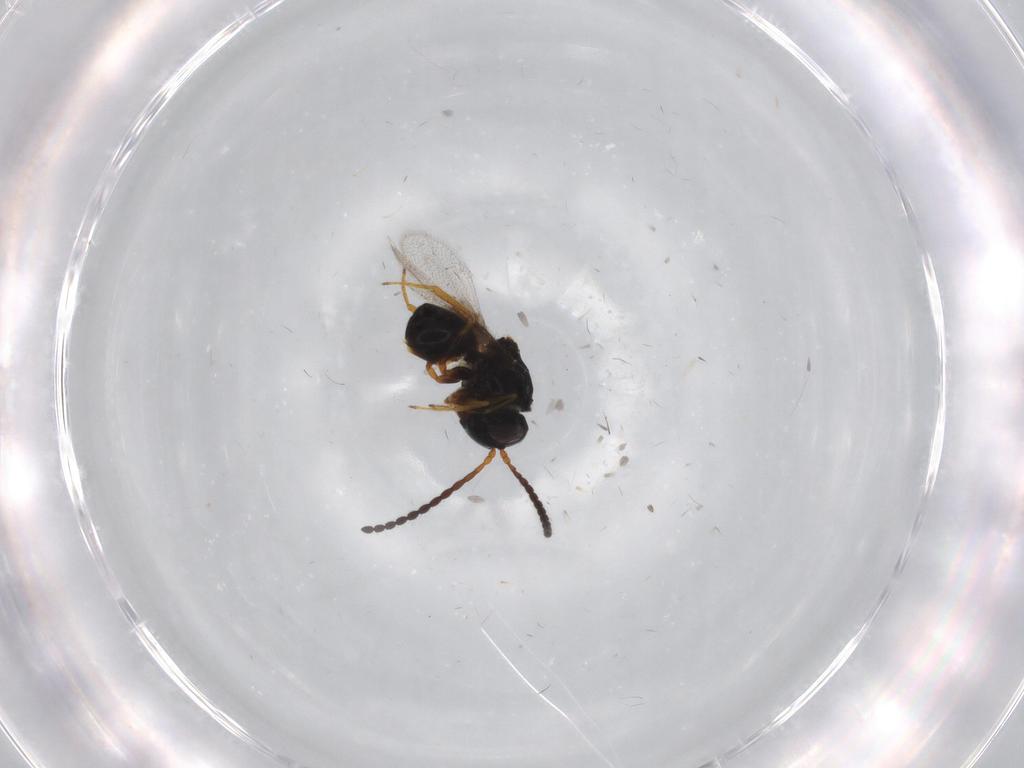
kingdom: Animalia
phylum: Arthropoda
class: Insecta
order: Hymenoptera
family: Figitidae
